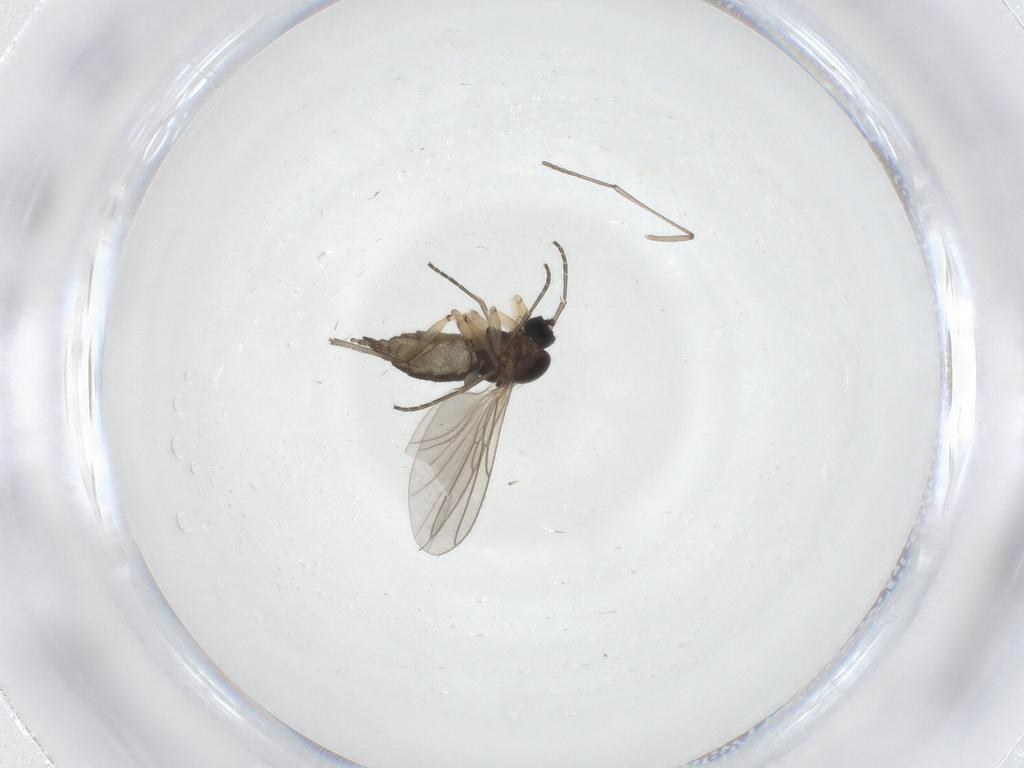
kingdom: Animalia
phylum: Arthropoda
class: Insecta
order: Diptera
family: Sciaridae
